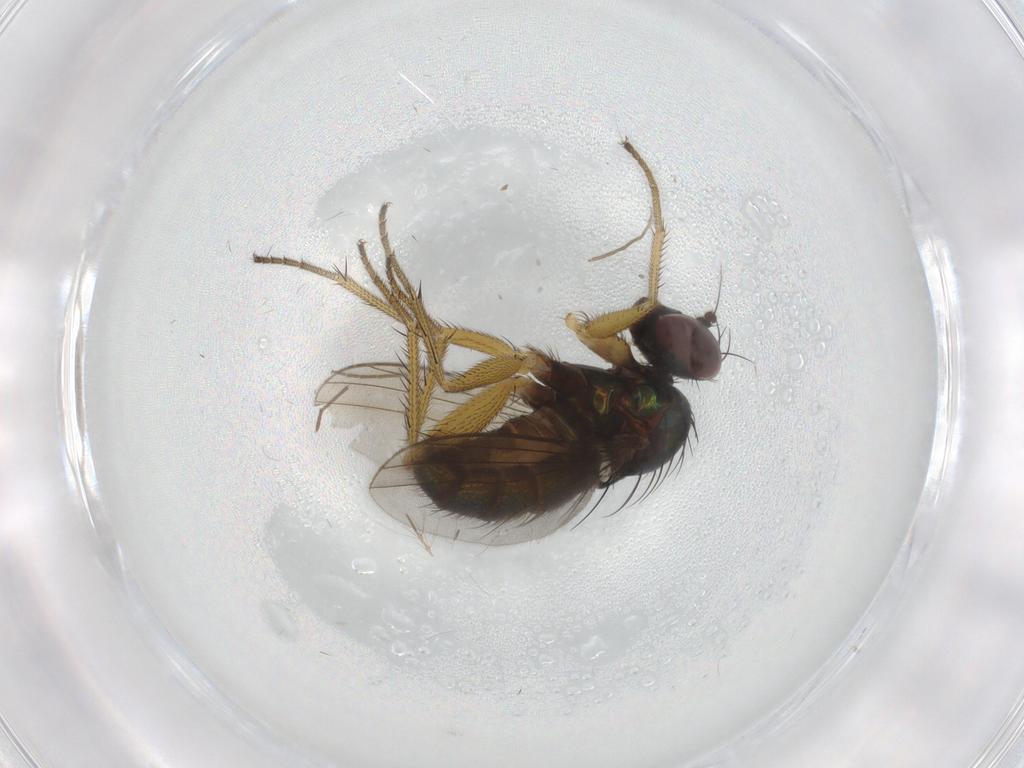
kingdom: Animalia
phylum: Arthropoda
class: Insecta
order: Diptera
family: Dolichopodidae
